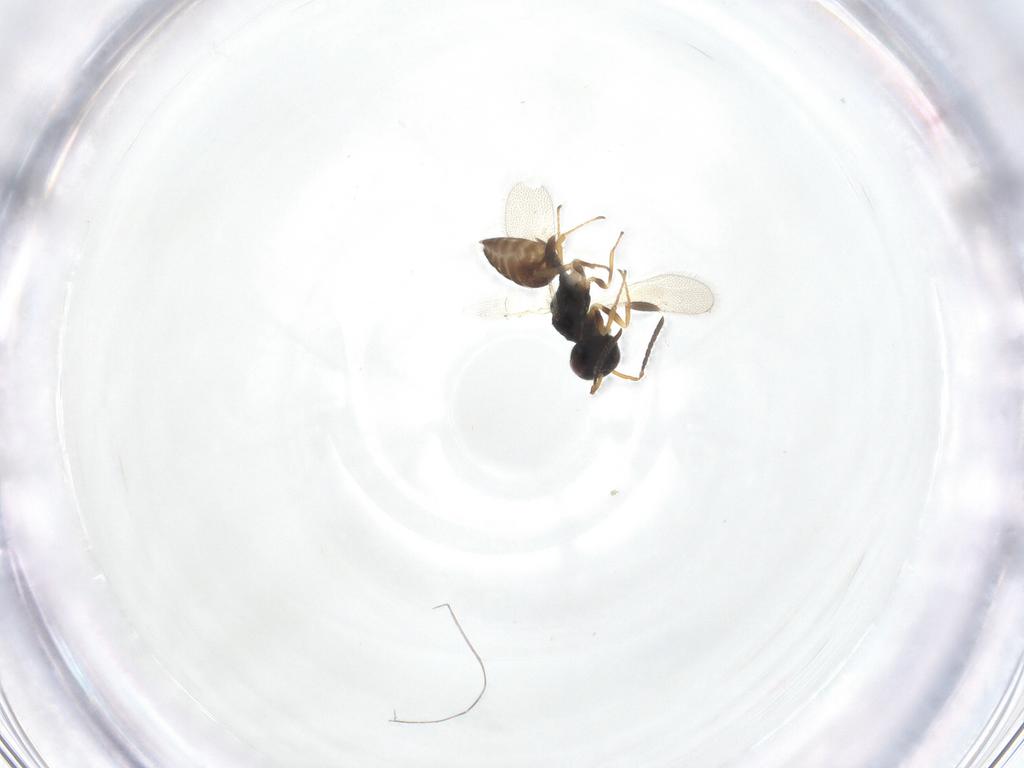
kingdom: Animalia
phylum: Arthropoda
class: Insecta
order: Hymenoptera
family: Pteromalidae
